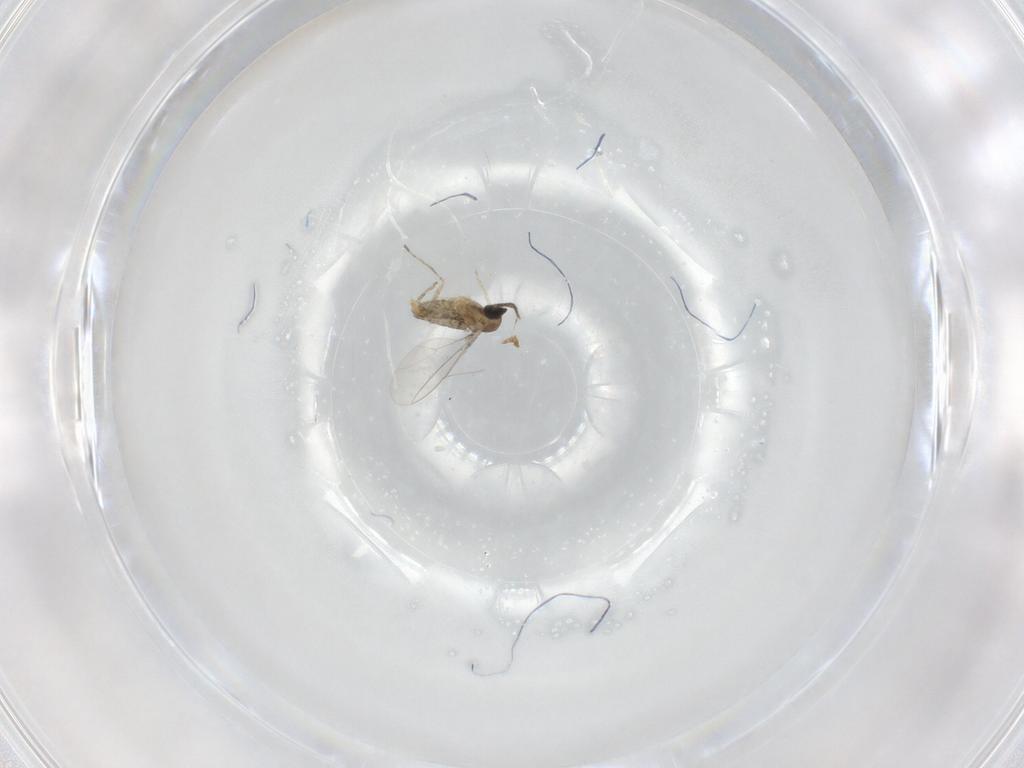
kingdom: Animalia
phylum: Arthropoda
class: Insecta
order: Diptera
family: Cecidomyiidae
